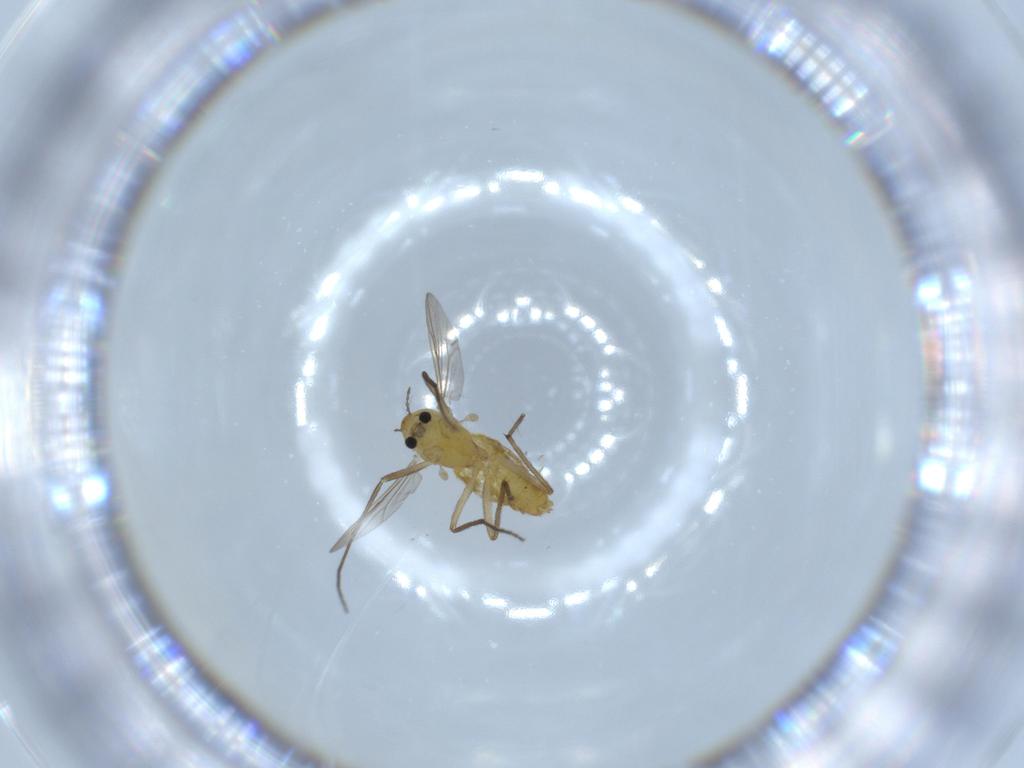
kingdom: Animalia
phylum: Arthropoda
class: Insecta
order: Diptera
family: Chironomidae
